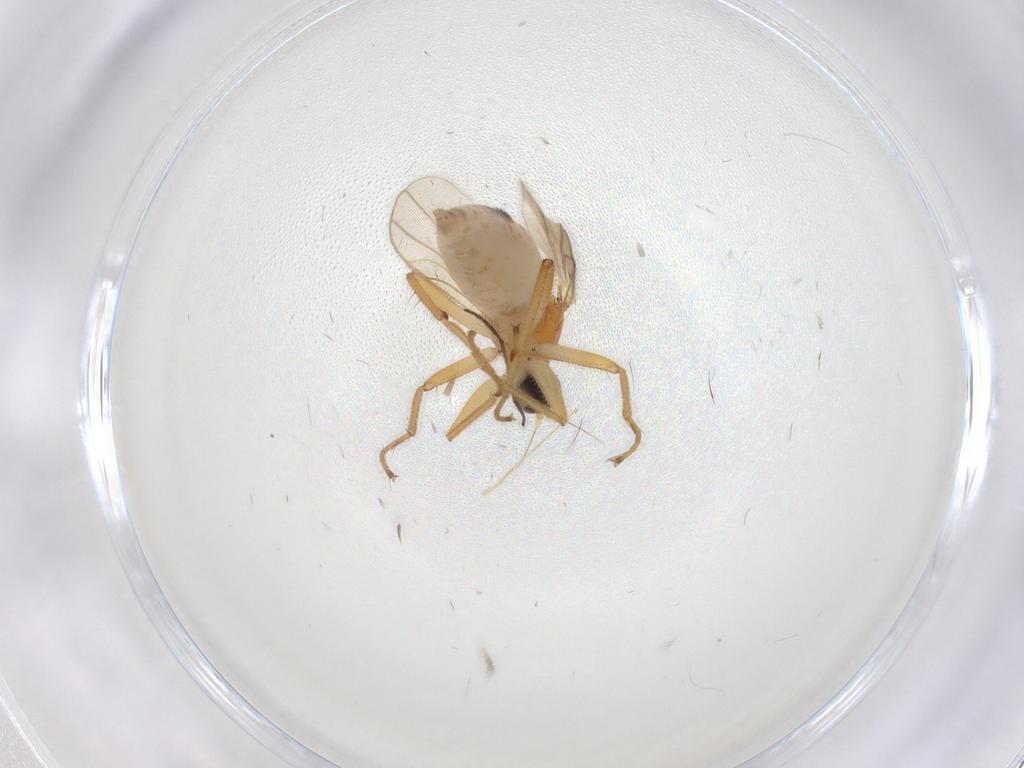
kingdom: Animalia
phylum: Arthropoda
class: Insecta
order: Diptera
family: Hybotidae
